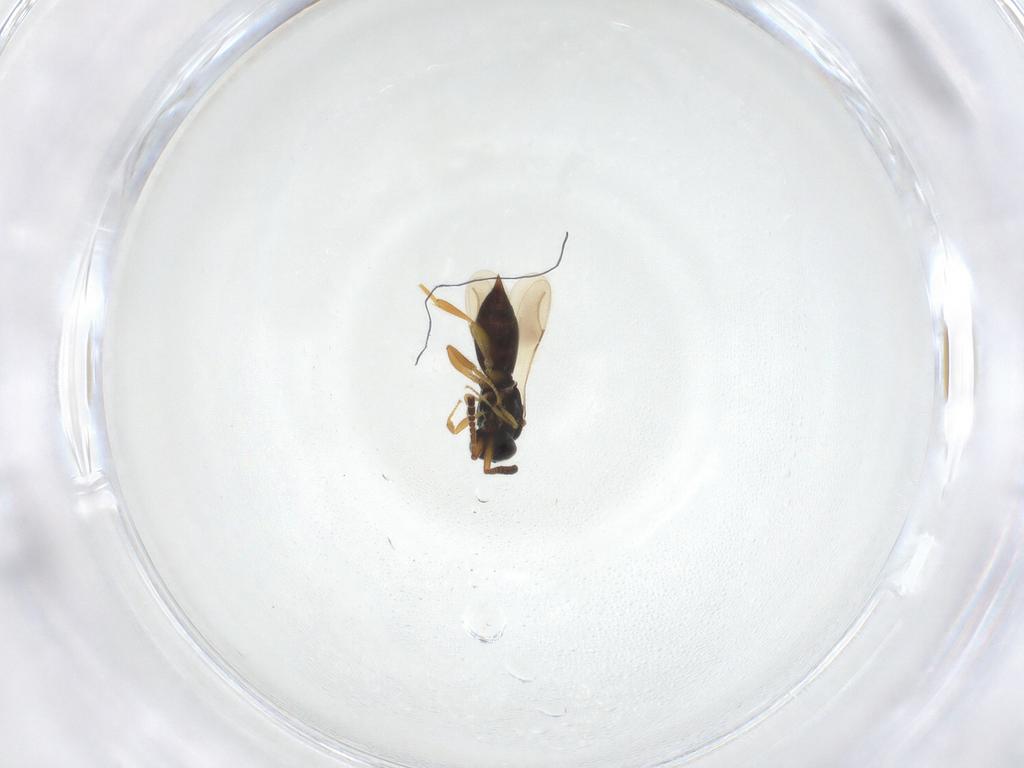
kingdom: Animalia
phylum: Arthropoda
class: Insecta
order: Hymenoptera
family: Ceraphronidae
